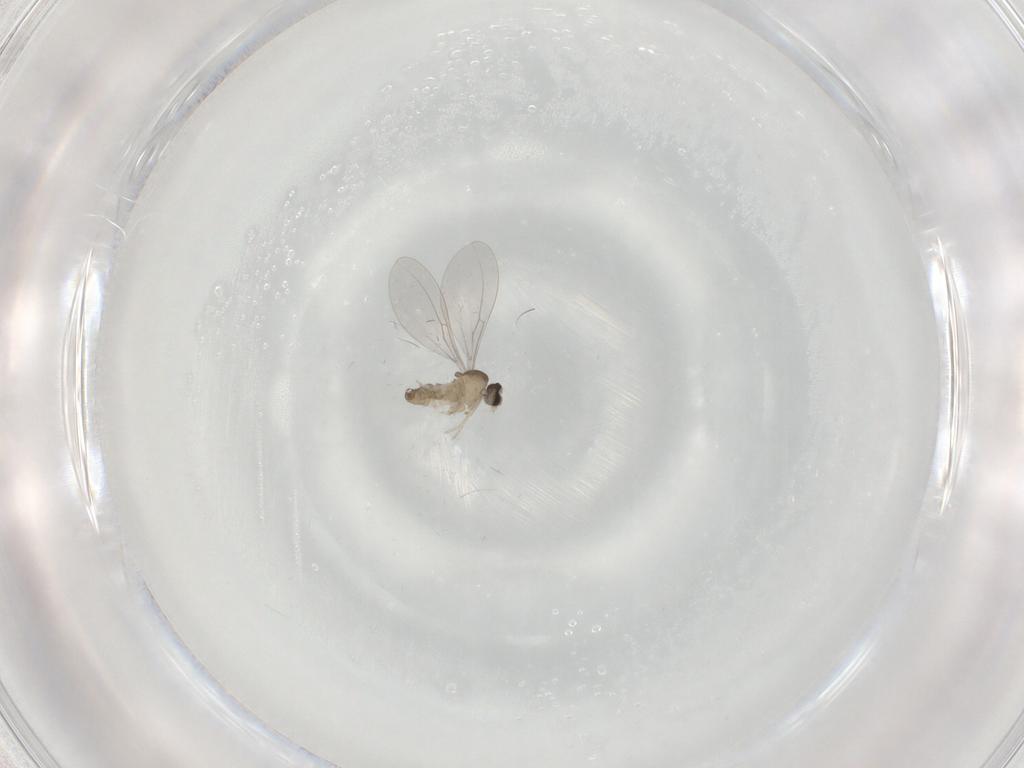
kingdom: Animalia
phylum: Arthropoda
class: Insecta
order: Diptera
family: Cecidomyiidae
